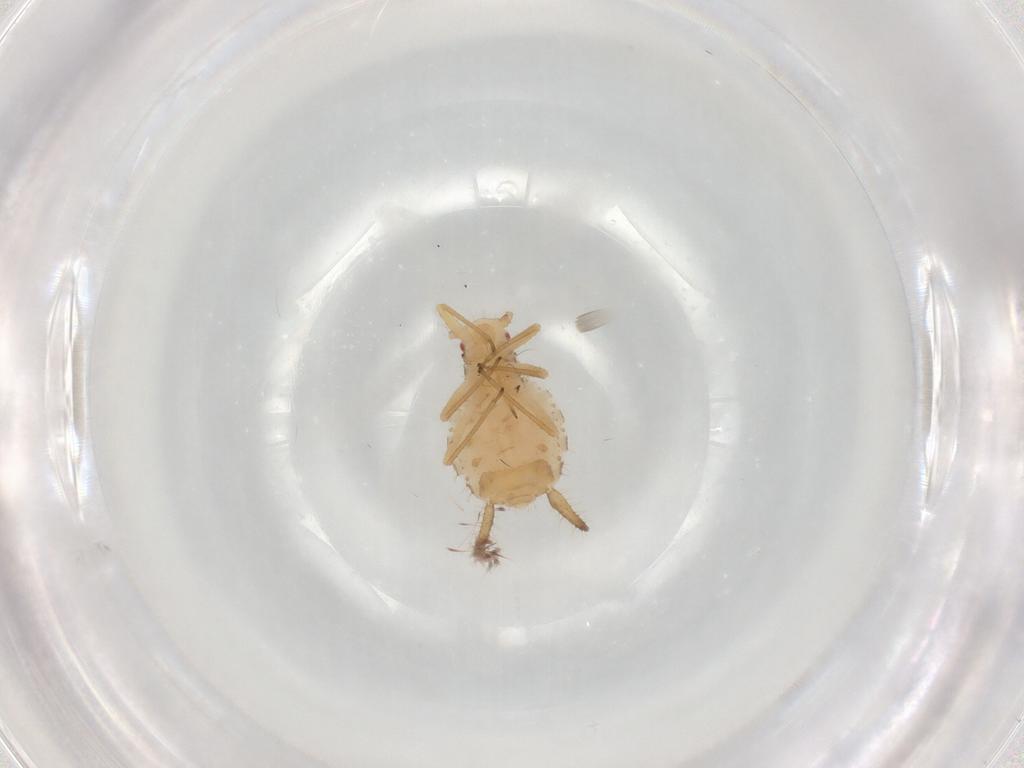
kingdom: Animalia
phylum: Arthropoda
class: Insecta
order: Hemiptera
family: Aphididae
